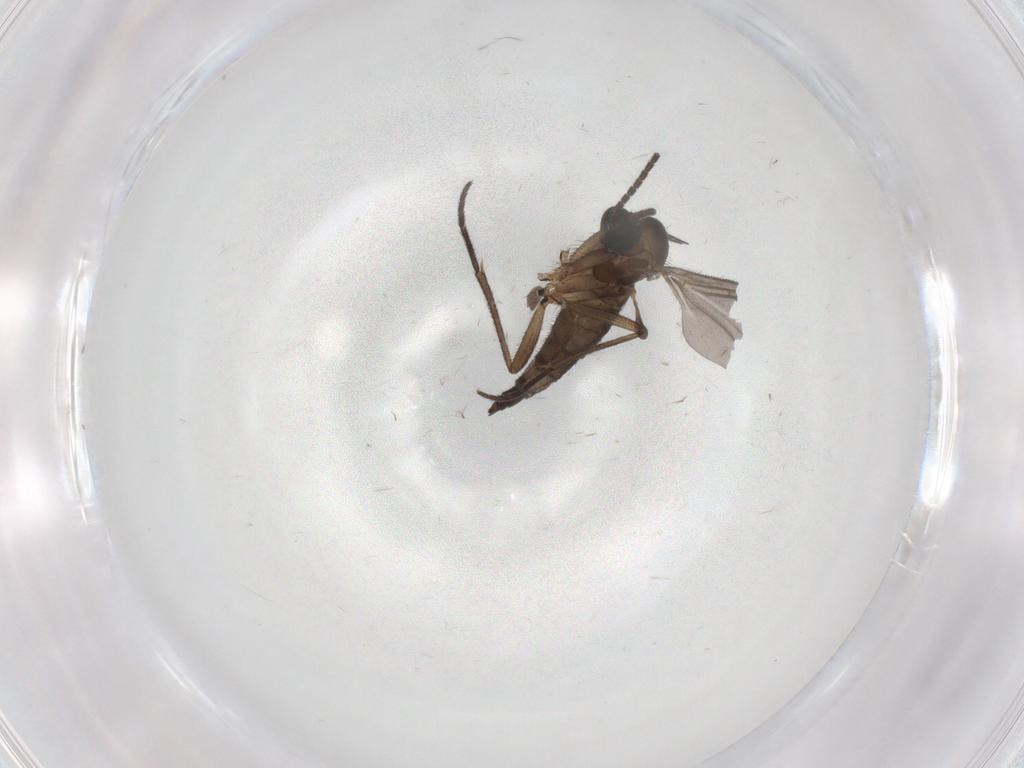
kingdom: Animalia
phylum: Arthropoda
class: Insecta
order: Diptera
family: Sciaridae
